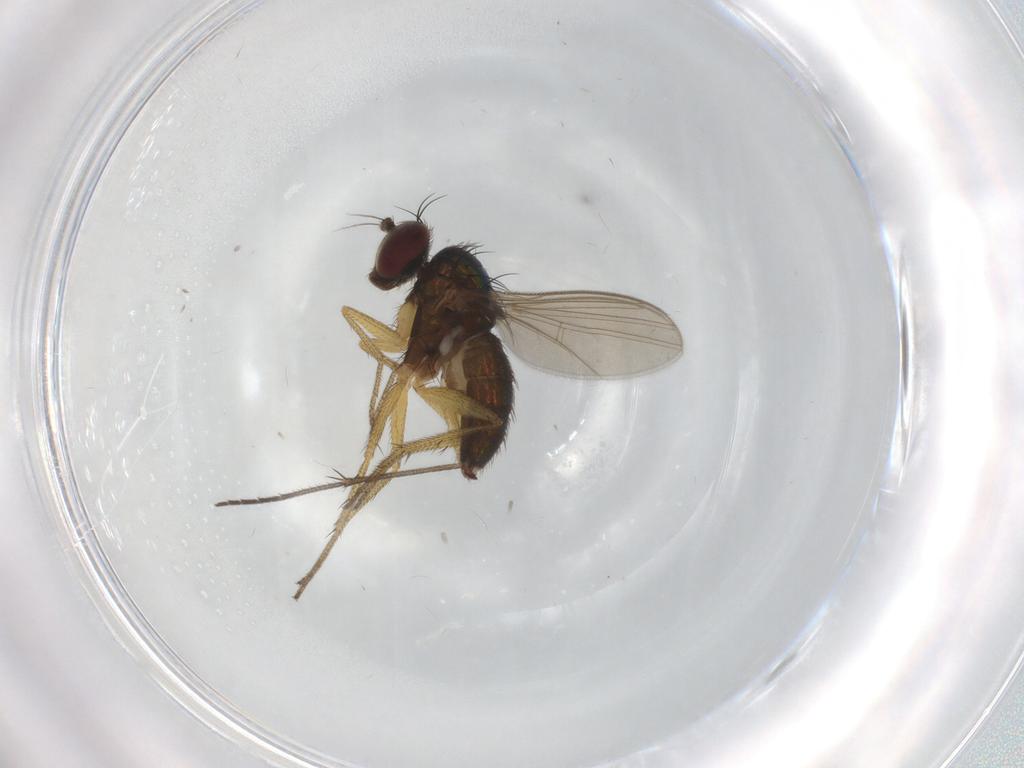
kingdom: Animalia
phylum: Arthropoda
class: Insecta
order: Diptera
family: Dolichopodidae
